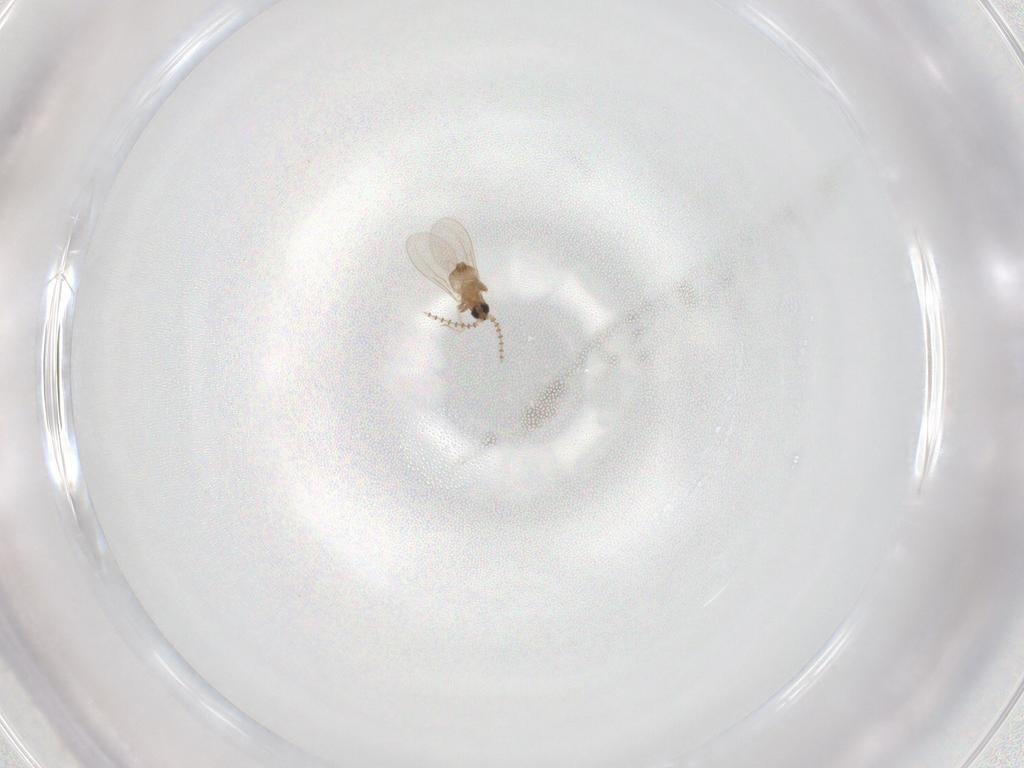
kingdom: Animalia
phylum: Arthropoda
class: Insecta
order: Diptera
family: Cecidomyiidae
